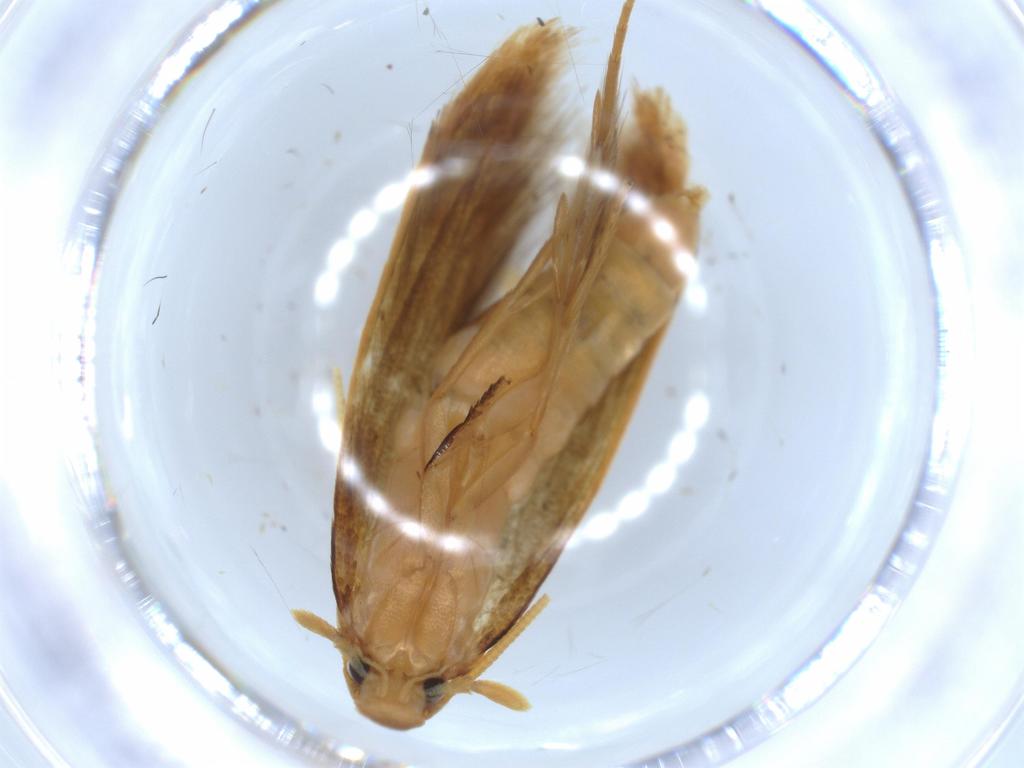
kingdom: Animalia
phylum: Arthropoda
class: Insecta
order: Lepidoptera
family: Tineidae
